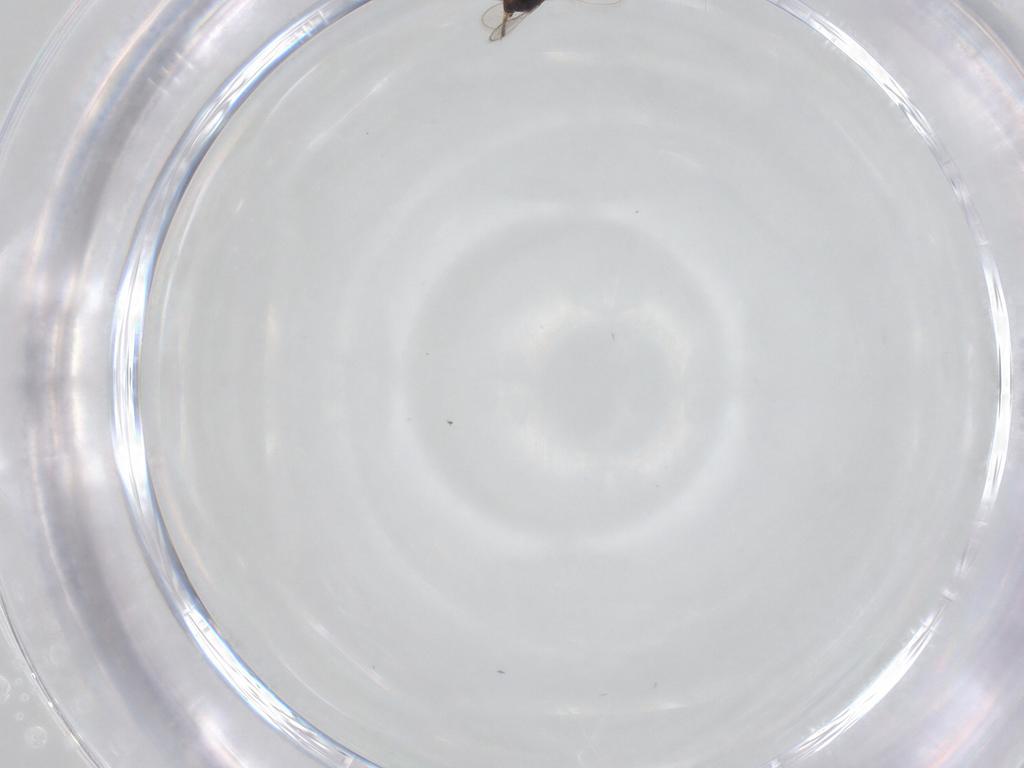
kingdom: Animalia
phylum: Arthropoda
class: Insecta
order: Hymenoptera
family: Azotidae
